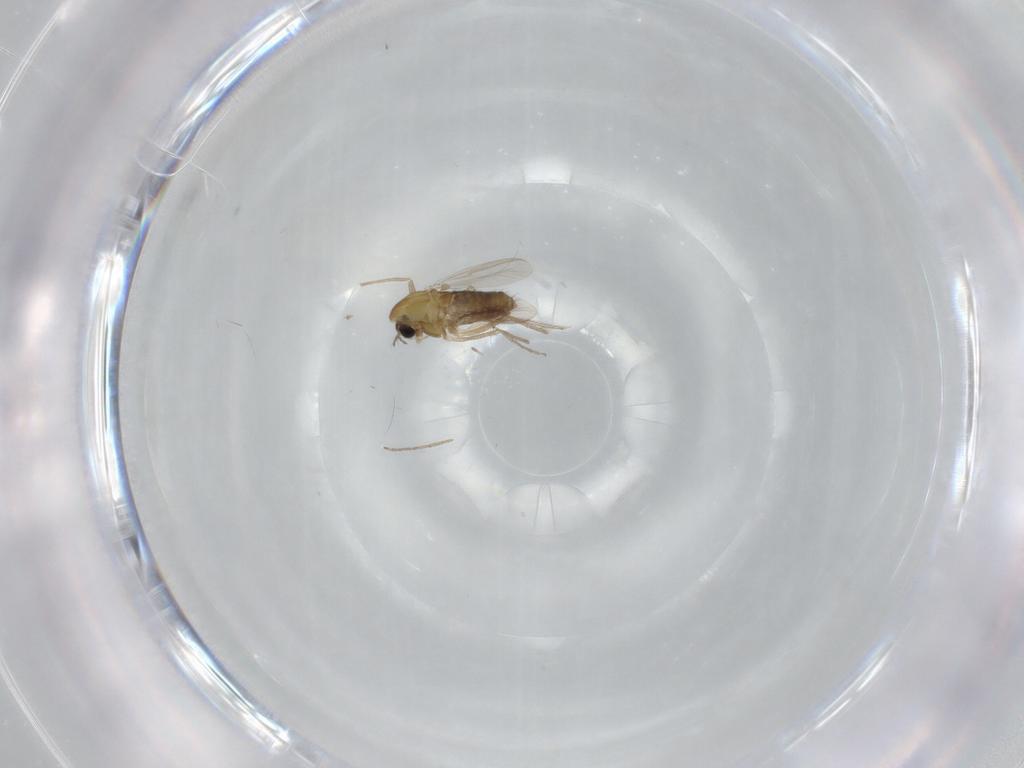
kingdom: Animalia
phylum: Arthropoda
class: Insecta
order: Diptera
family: Chironomidae
